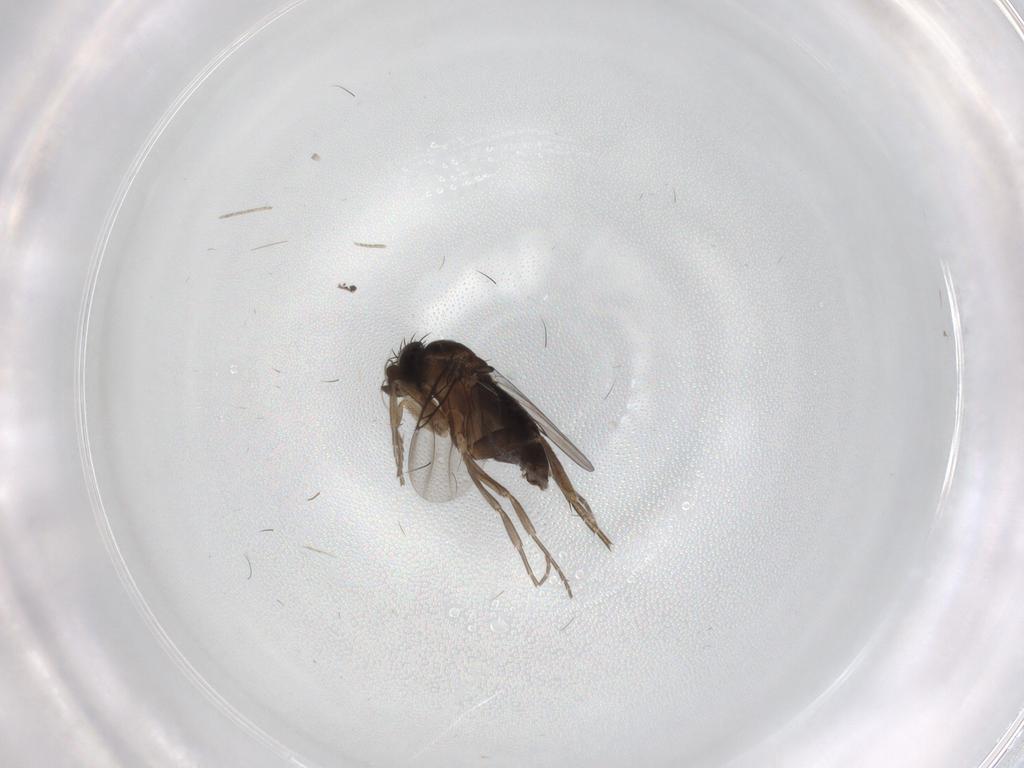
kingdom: Animalia
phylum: Arthropoda
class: Insecta
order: Diptera
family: Phoridae
